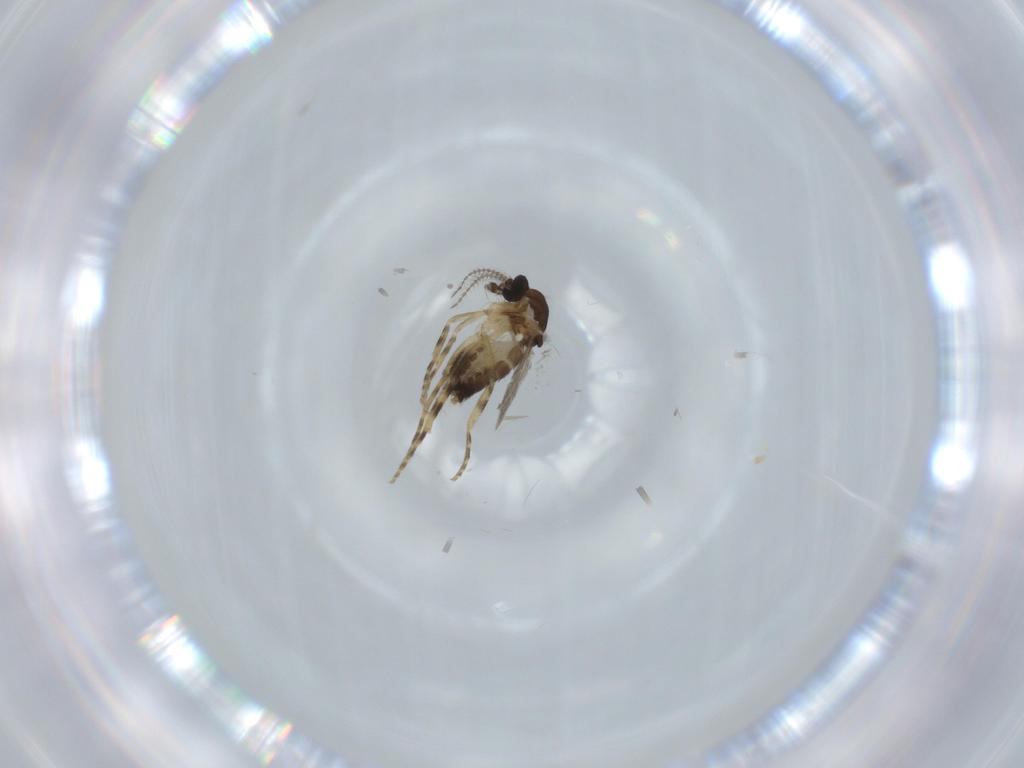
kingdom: Animalia
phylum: Arthropoda
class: Insecta
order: Diptera
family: Ceratopogonidae
